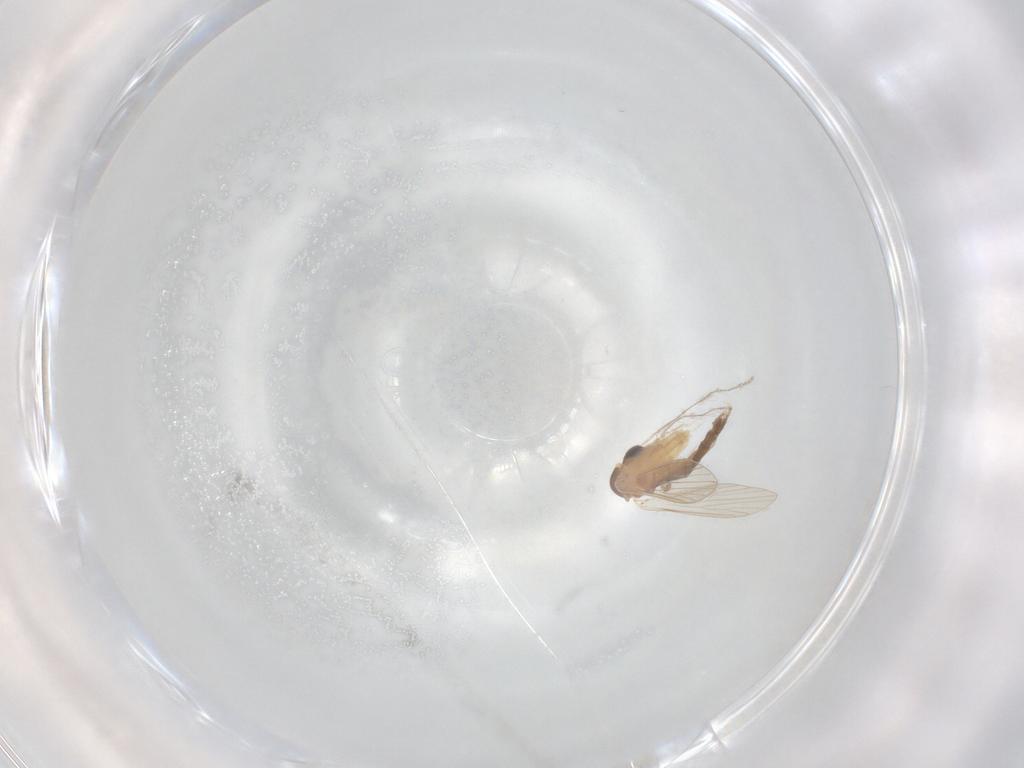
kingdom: Animalia
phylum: Arthropoda
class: Insecta
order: Diptera
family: Psychodidae
